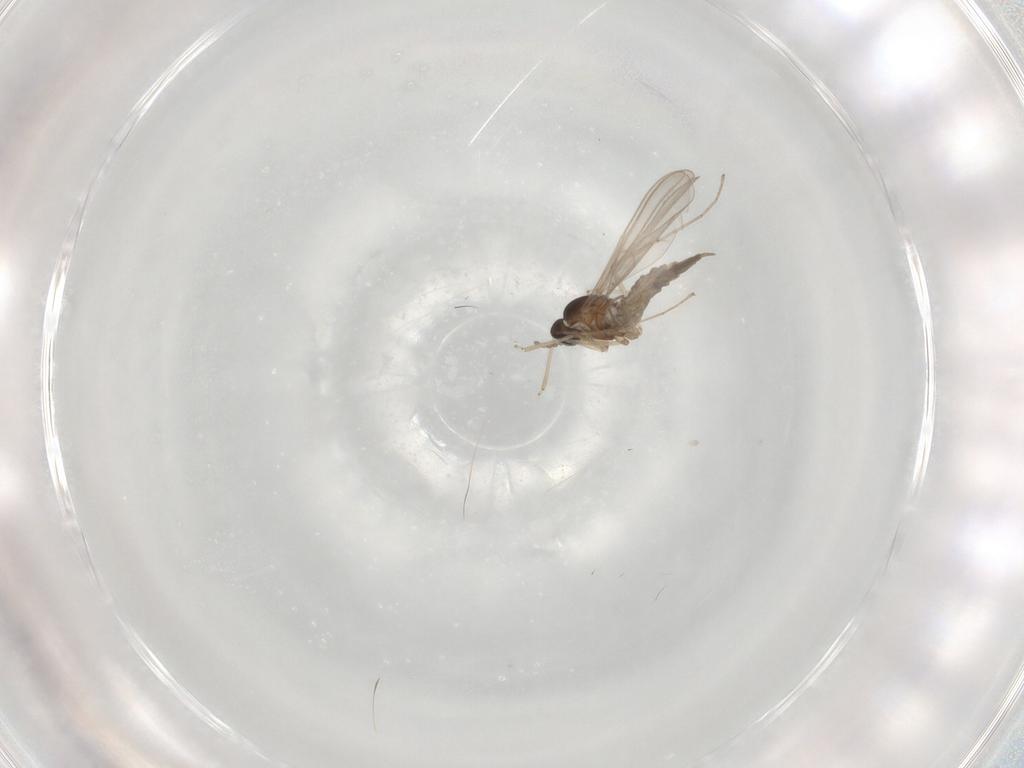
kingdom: Animalia
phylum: Arthropoda
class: Insecta
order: Diptera
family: Cecidomyiidae
